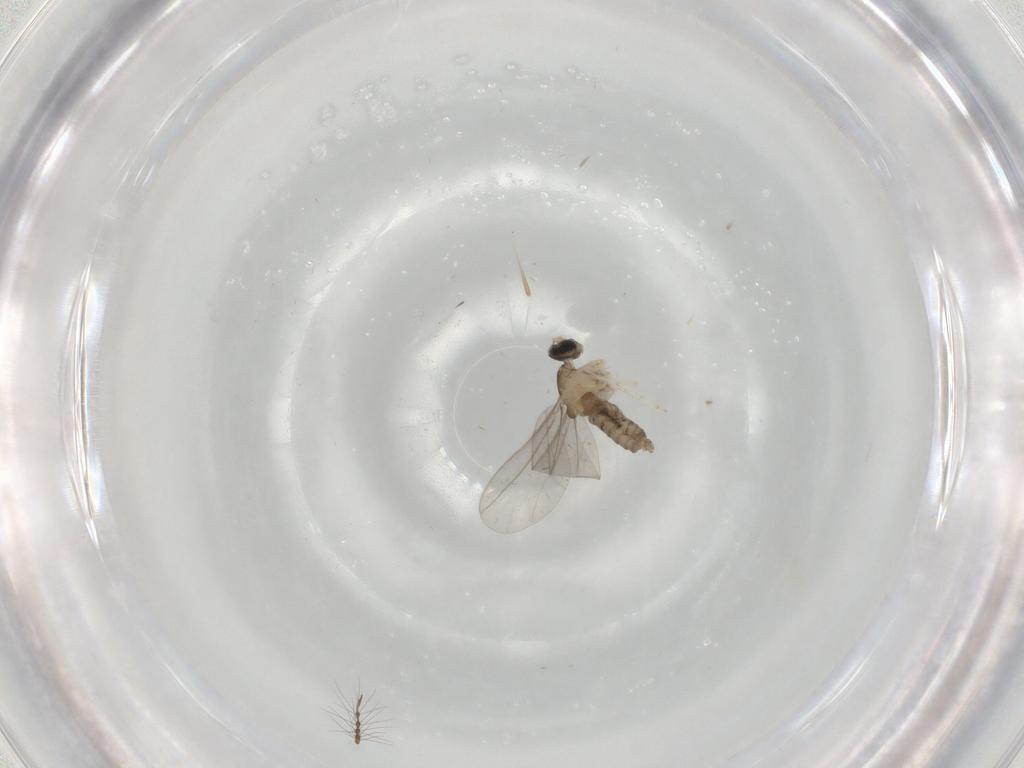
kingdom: Animalia
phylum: Arthropoda
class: Insecta
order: Diptera
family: Cecidomyiidae
